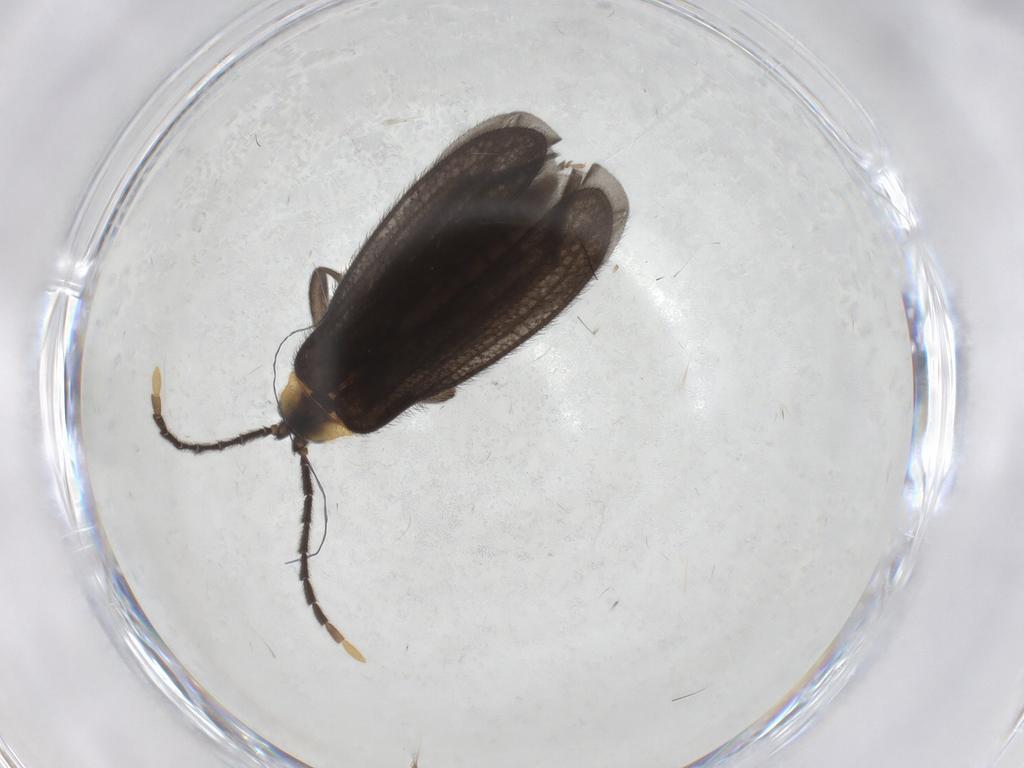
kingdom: Animalia
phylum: Arthropoda
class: Insecta
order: Coleoptera
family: Lycidae
